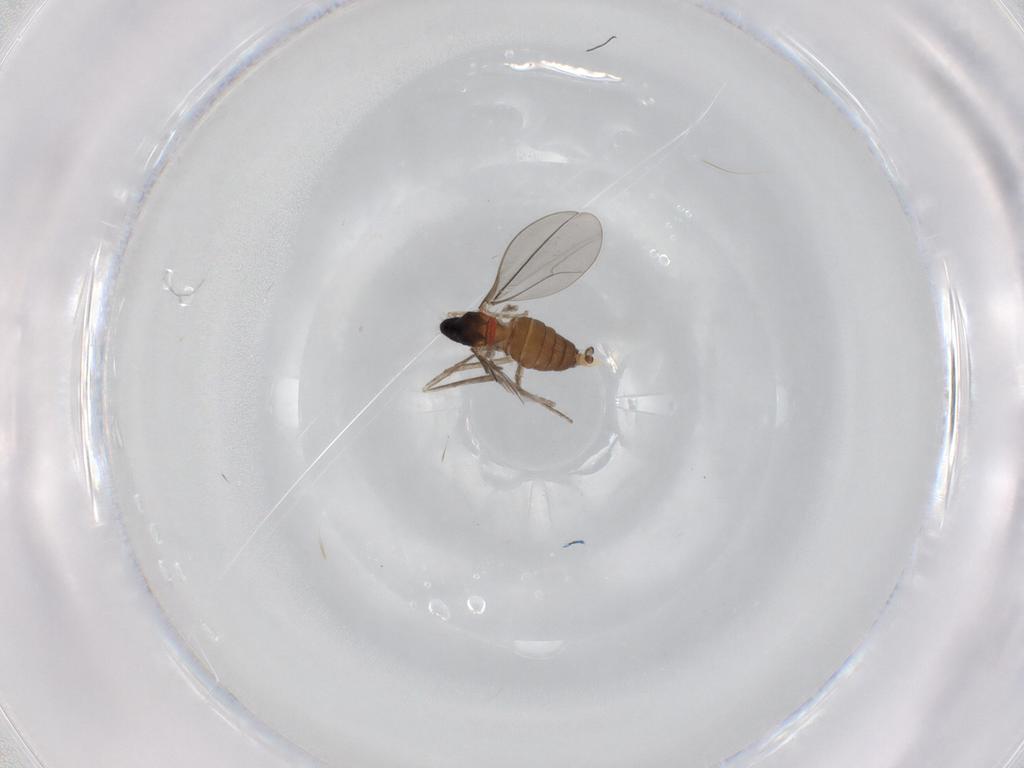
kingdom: Animalia
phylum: Arthropoda
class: Insecta
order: Diptera
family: Cecidomyiidae
